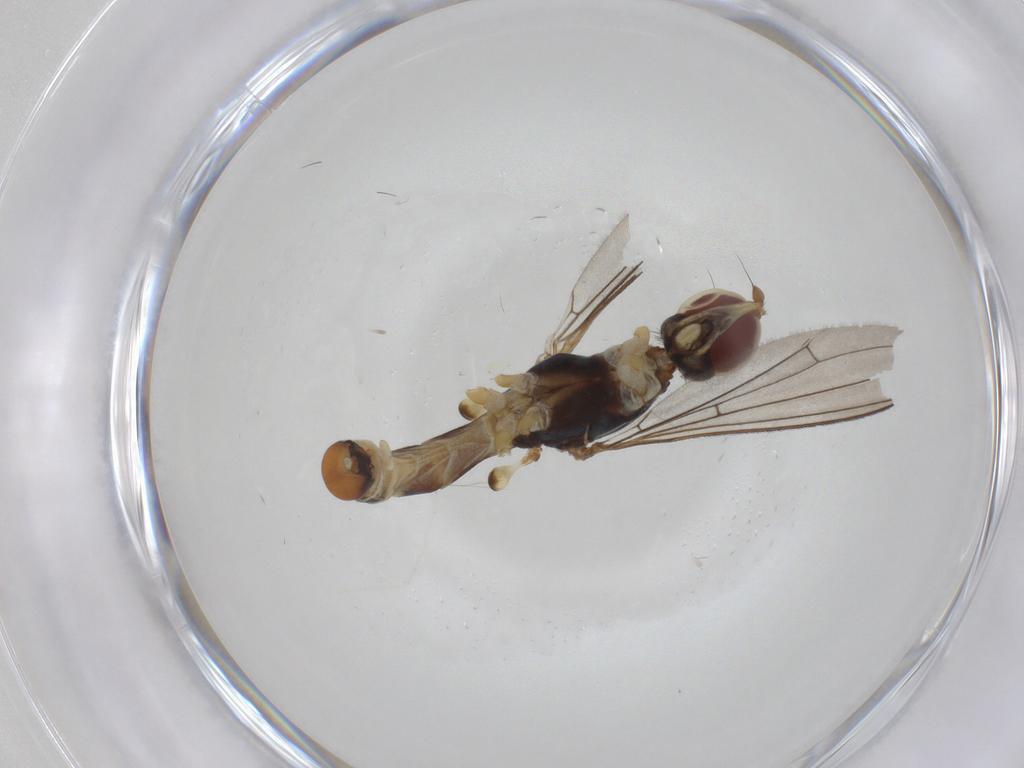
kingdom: Animalia
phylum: Arthropoda
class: Insecta
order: Diptera
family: Micropezidae
